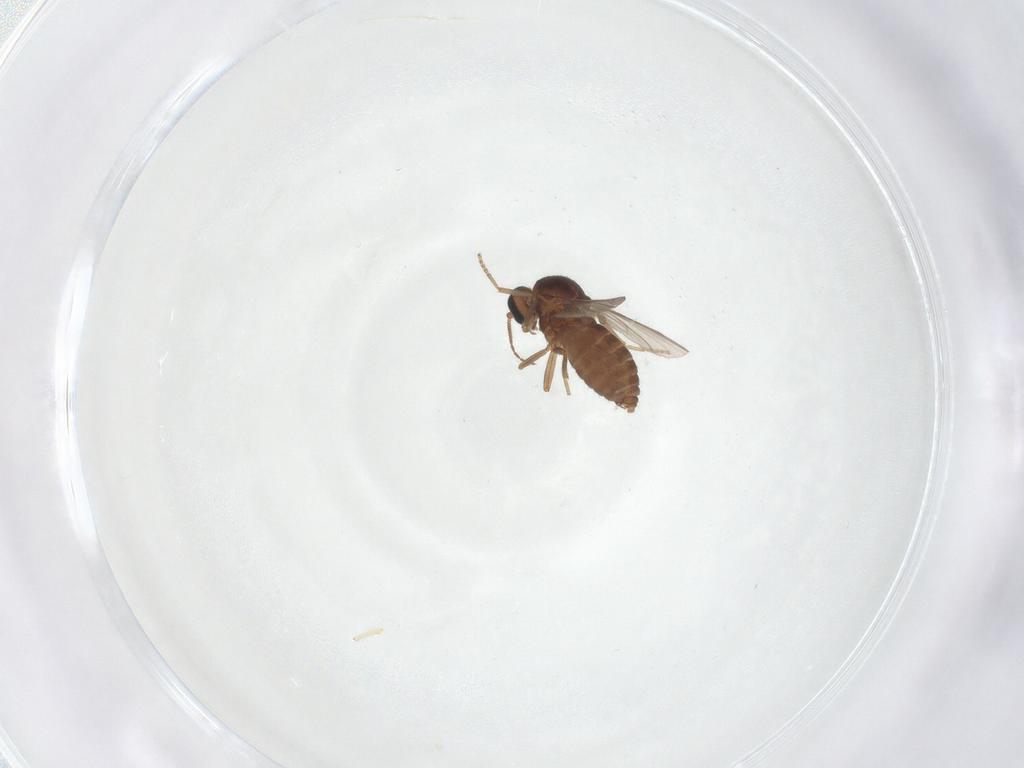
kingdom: Animalia
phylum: Arthropoda
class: Insecta
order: Diptera
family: Ceratopogonidae
